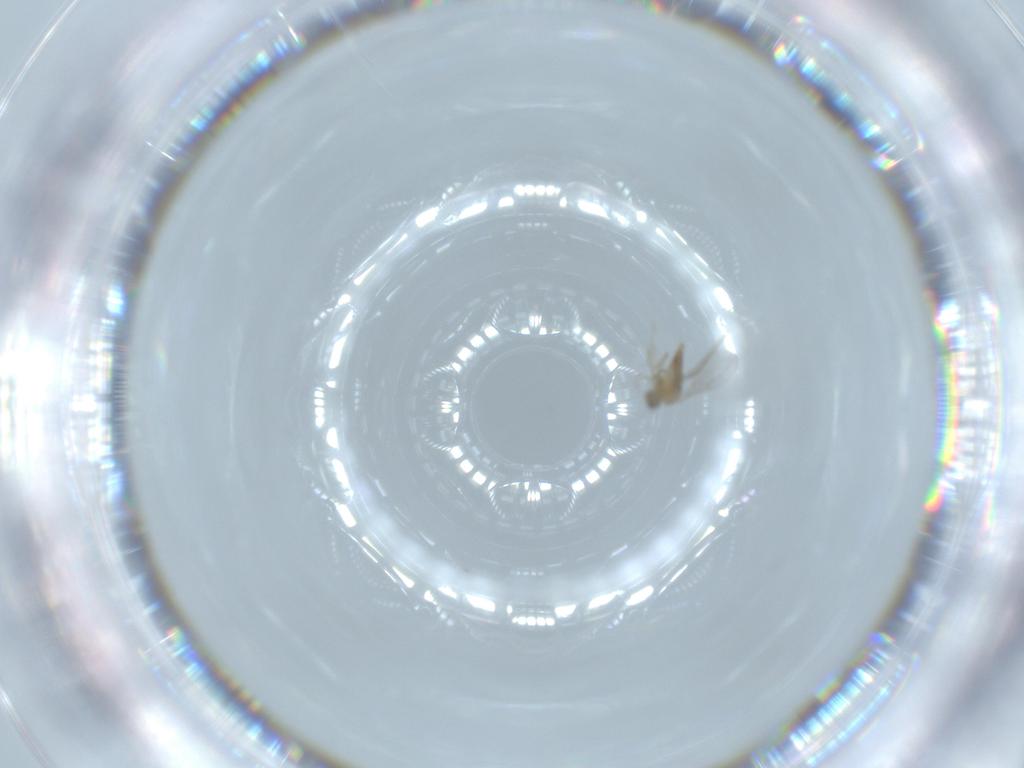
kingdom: Animalia
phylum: Arthropoda
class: Insecta
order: Diptera
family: Cecidomyiidae
